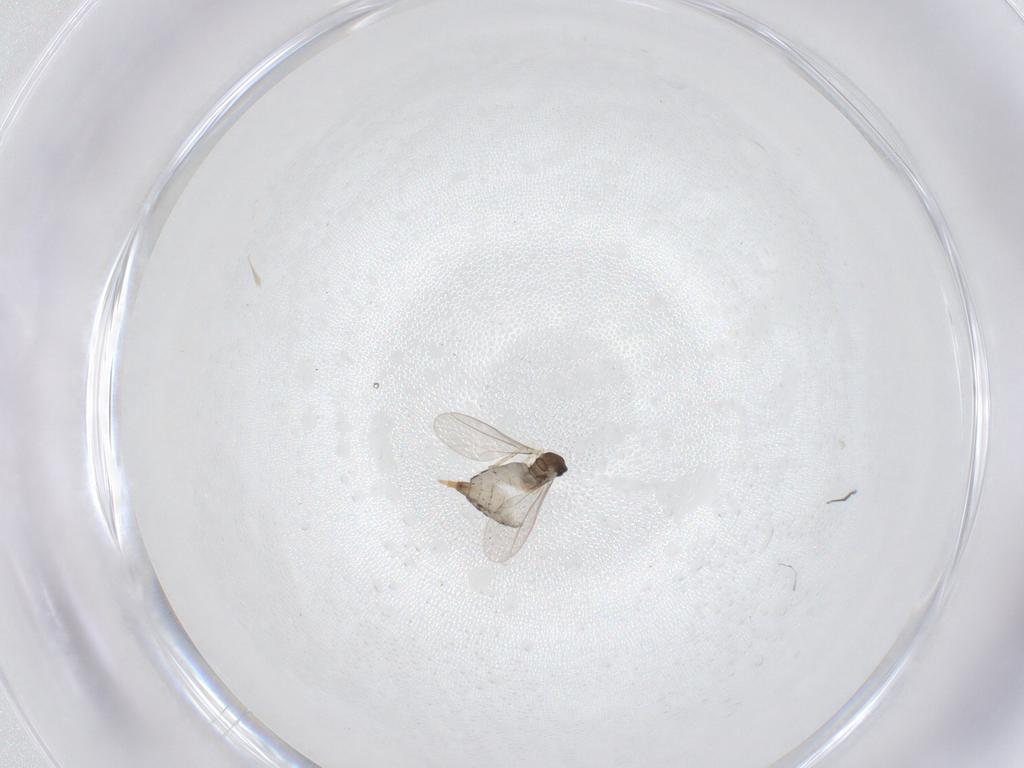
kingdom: Animalia
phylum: Arthropoda
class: Insecta
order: Diptera
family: Cecidomyiidae
